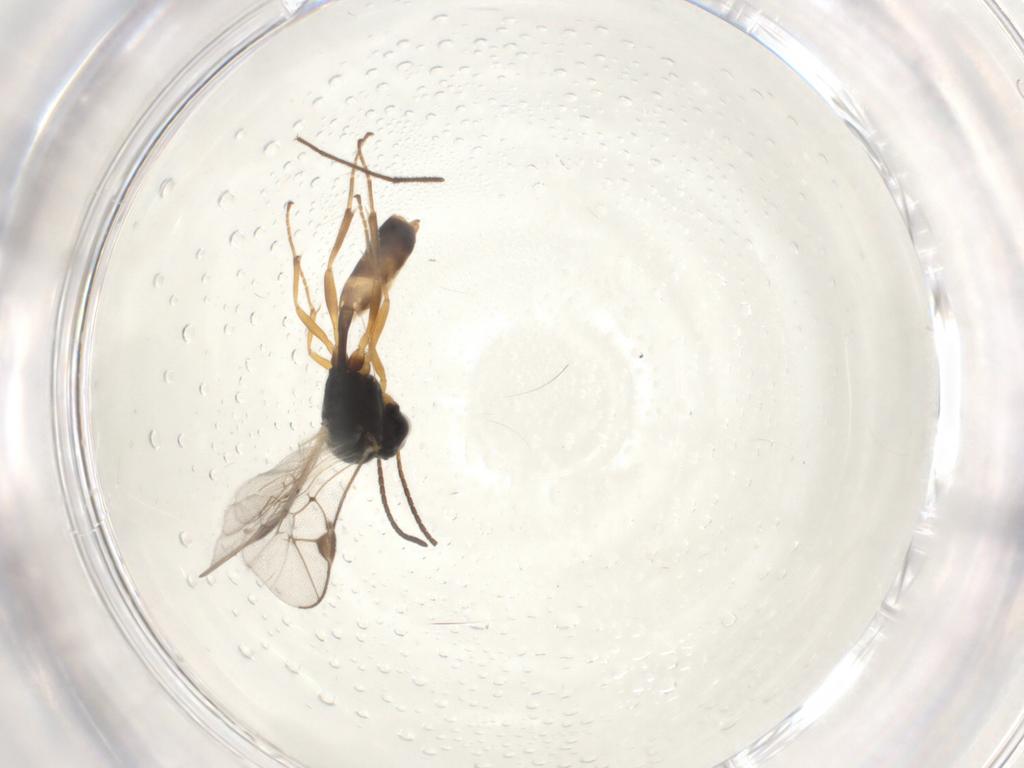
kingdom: Animalia
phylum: Arthropoda
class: Insecta
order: Hymenoptera
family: Ichneumonidae
